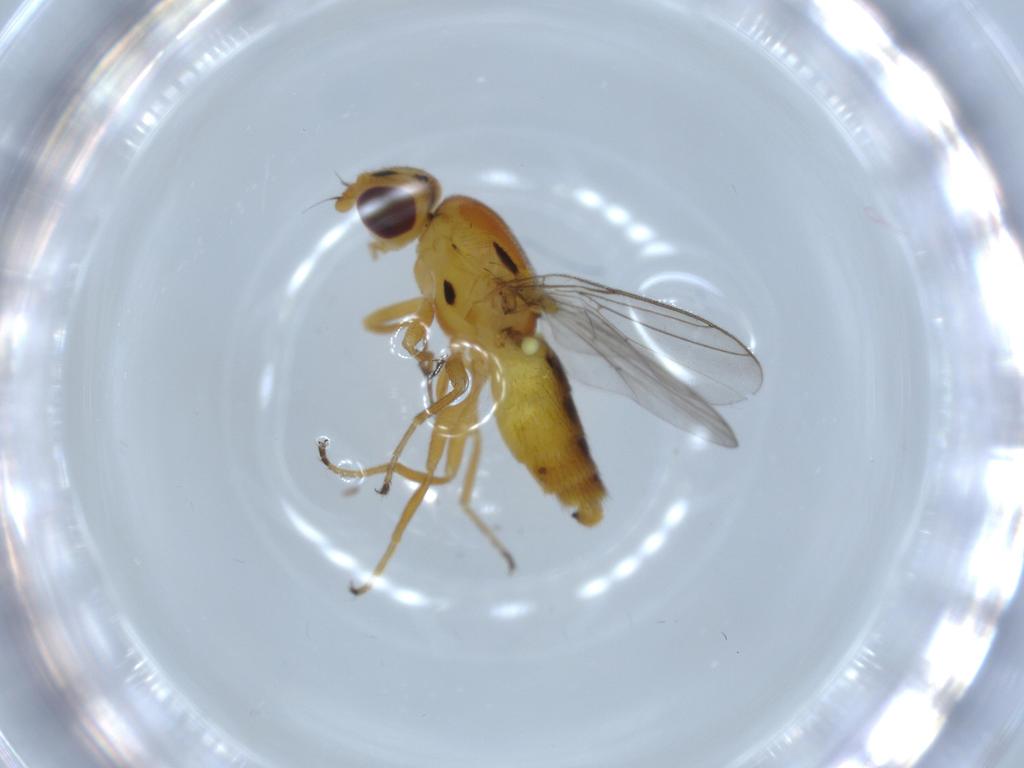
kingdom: Animalia
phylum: Arthropoda
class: Insecta
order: Diptera
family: Chloropidae
